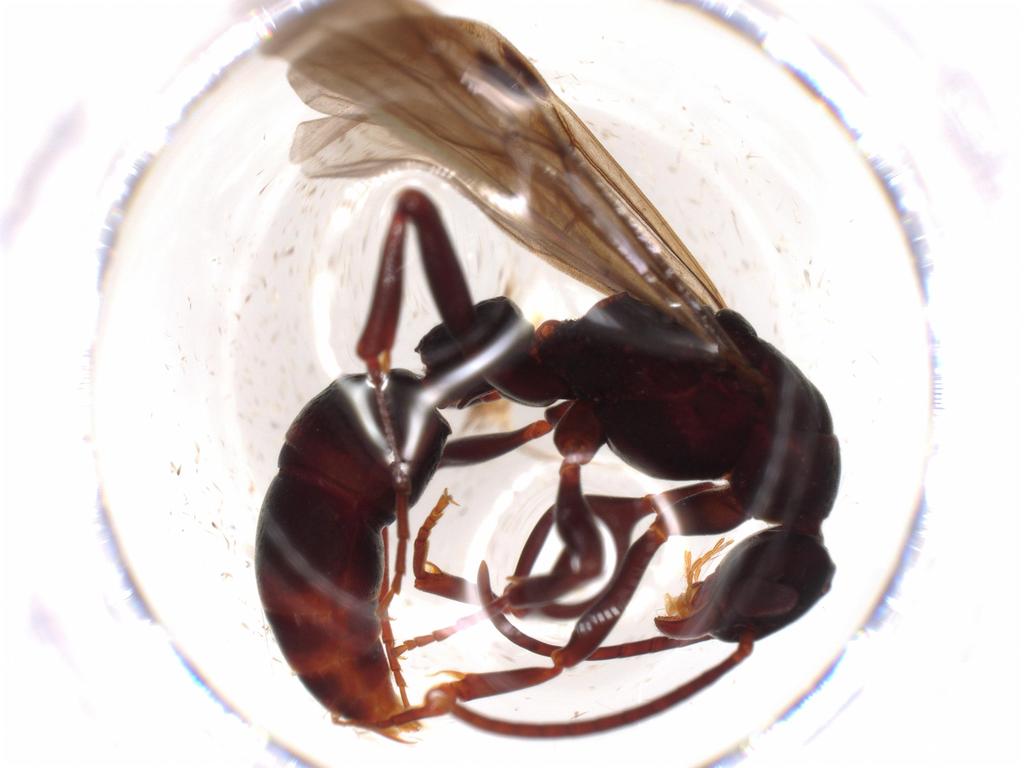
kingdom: Animalia
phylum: Arthropoda
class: Insecta
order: Hymenoptera
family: Formicidae
